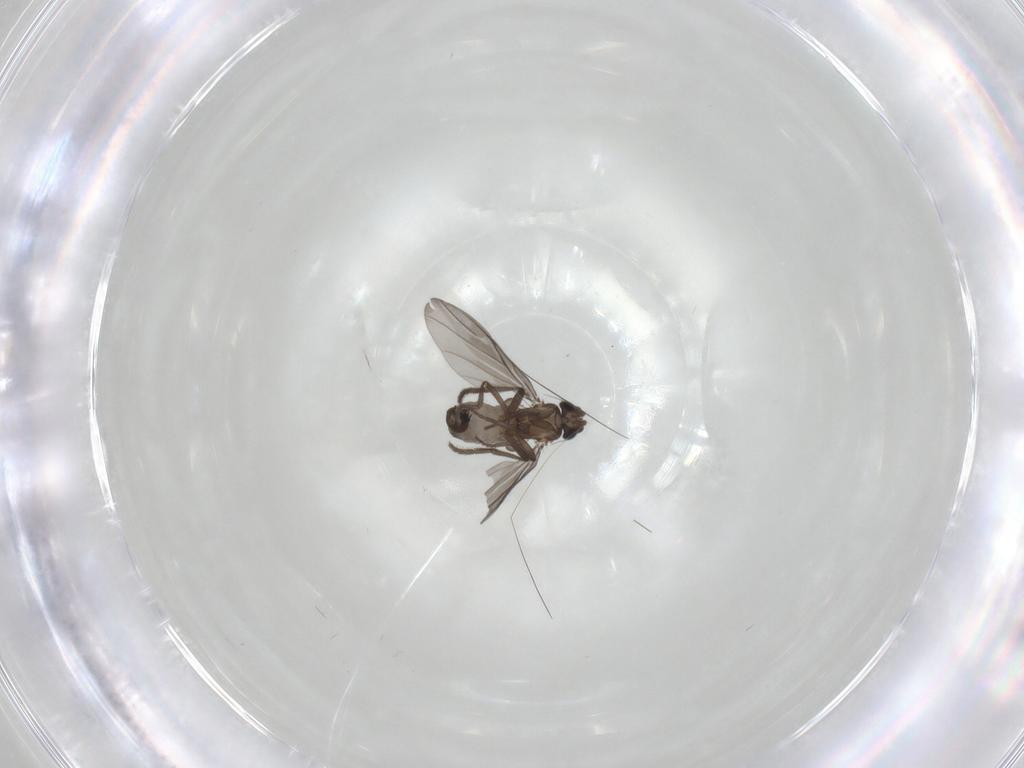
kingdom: Animalia
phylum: Arthropoda
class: Insecta
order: Diptera
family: Phoridae
